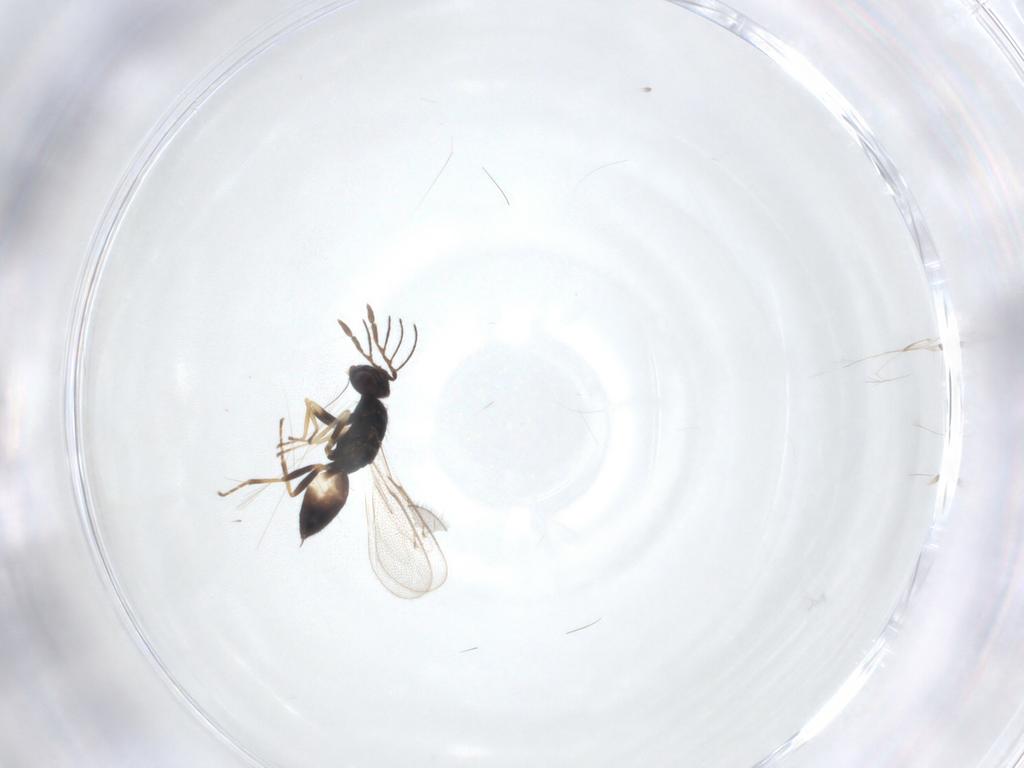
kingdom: Animalia
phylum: Arthropoda
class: Insecta
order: Hymenoptera
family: Eulophidae
